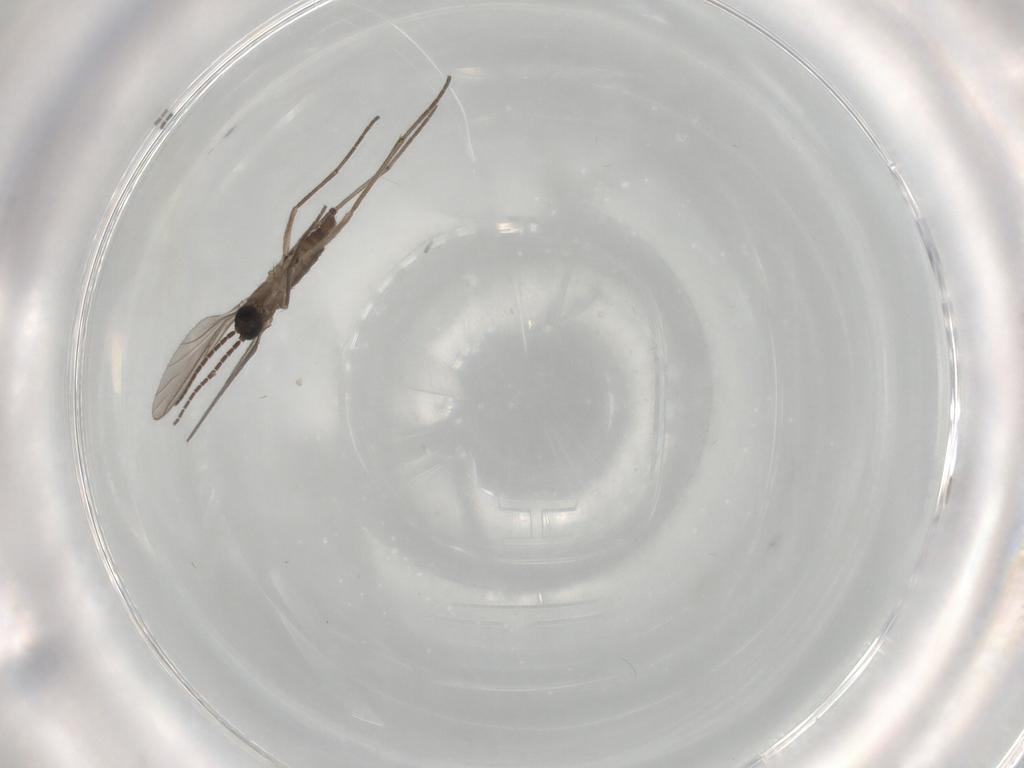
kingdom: Animalia
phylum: Arthropoda
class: Insecta
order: Diptera
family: Sciaridae
